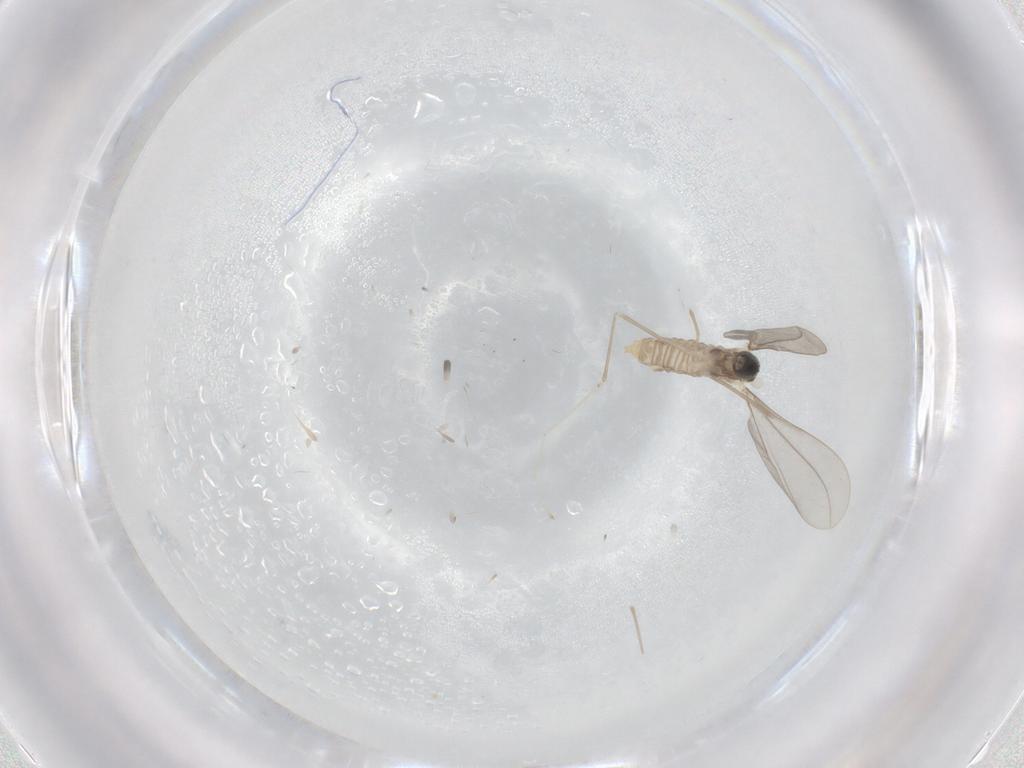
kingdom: Animalia
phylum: Arthropoda
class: Insecta
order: Diptera
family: Cecidomyiidae
